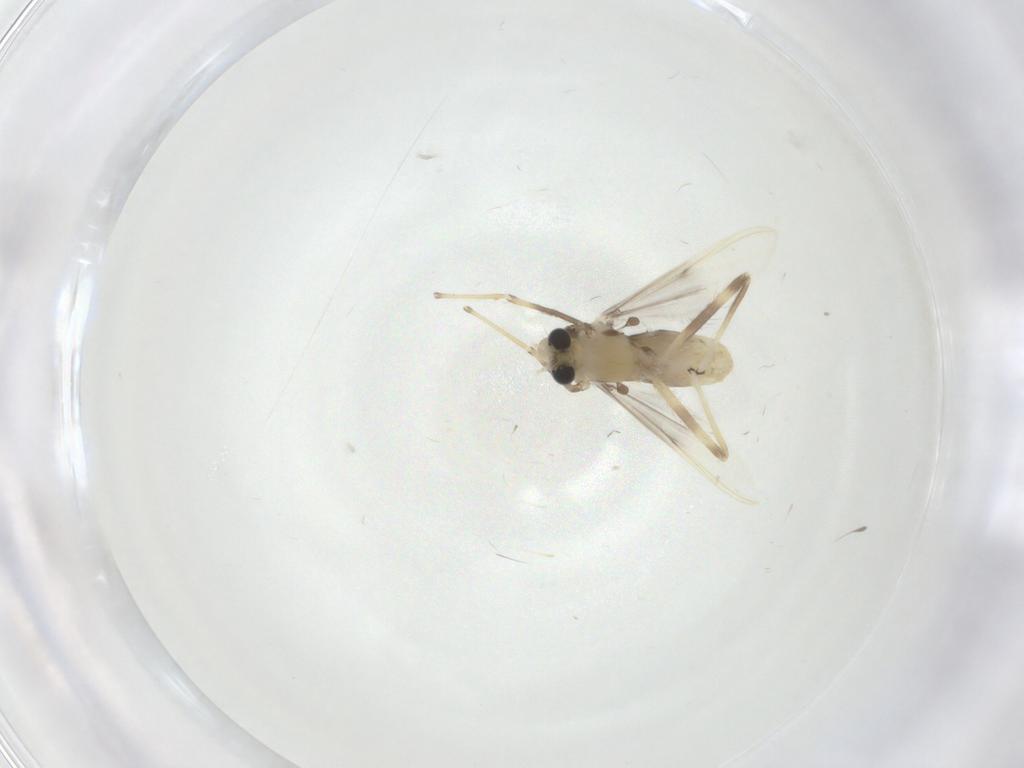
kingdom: Animalia
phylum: Arthropoda
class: Insecta
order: Diptera
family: Chironomidae
